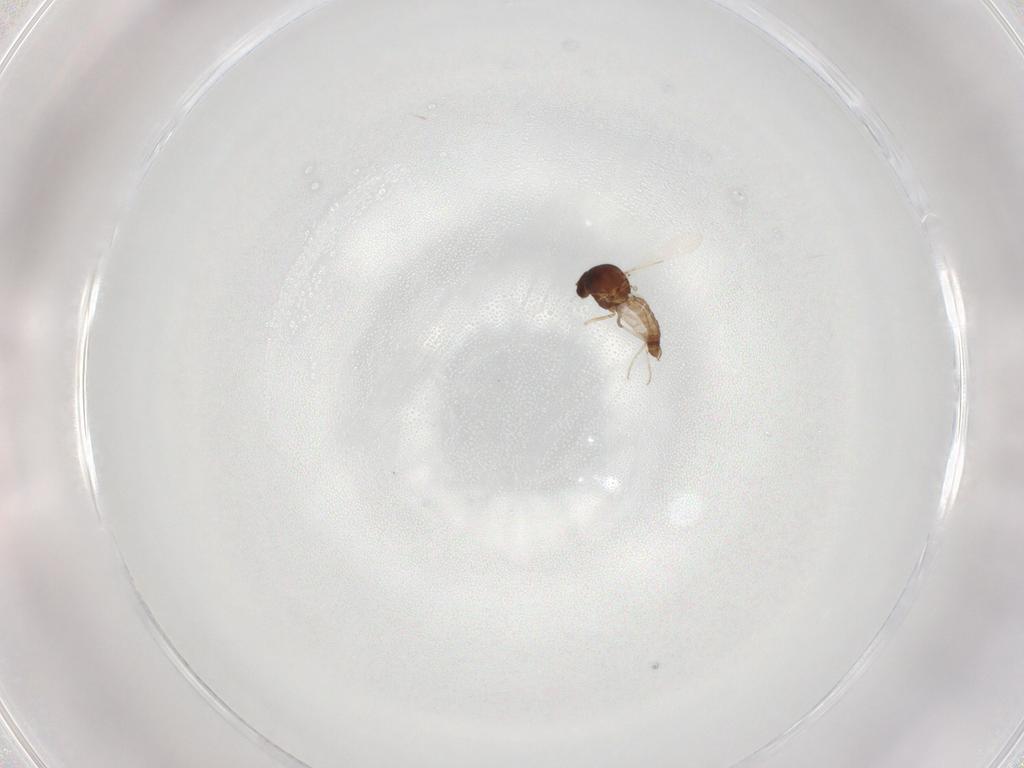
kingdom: Animalia
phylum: Arthropoda
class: Insecta
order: Diptera
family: Ceratopogonidae
